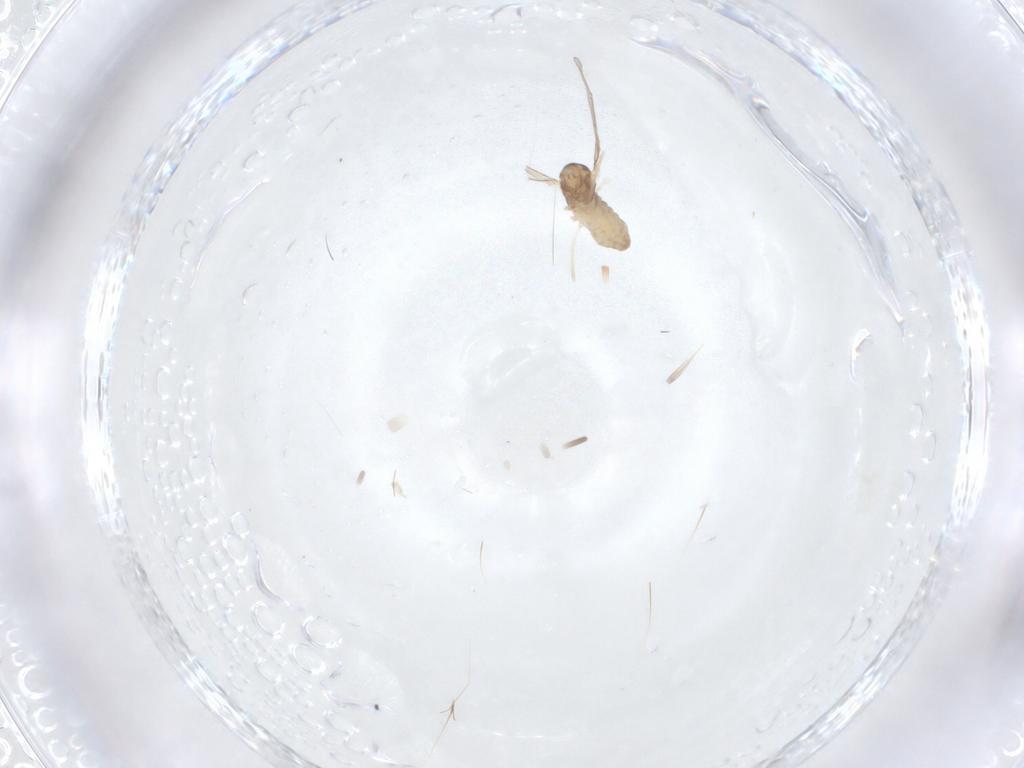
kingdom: Animalia
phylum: Arthropoda
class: Insecta
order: Diptera
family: Cecidomyiidae
